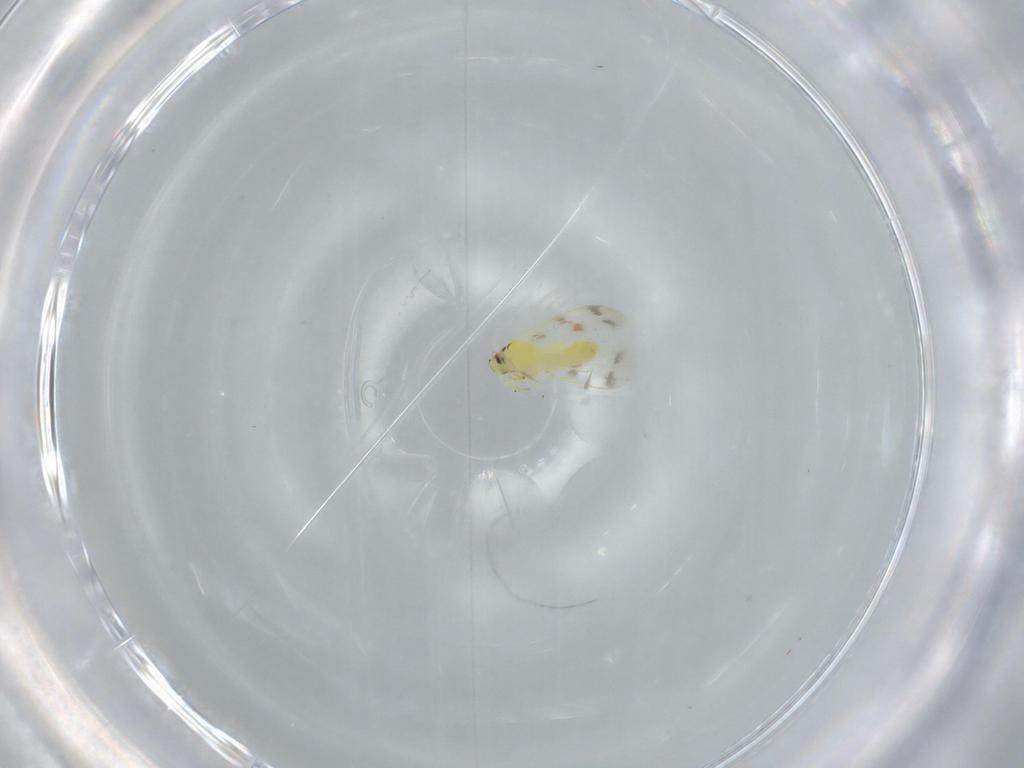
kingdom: Animalia
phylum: Arthropoda
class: Insecta
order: Hemiptera
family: Aleyrodidae
